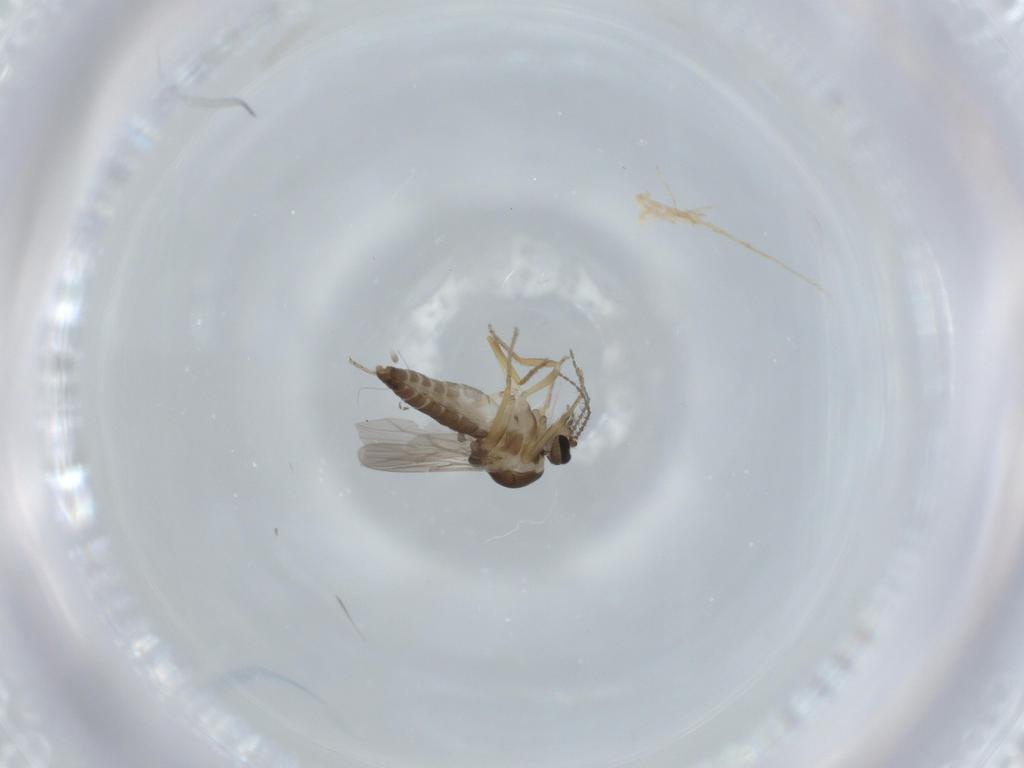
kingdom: Animalia
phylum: Arthropoda
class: Insecta
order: Diptera
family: Ceratopogonidae
